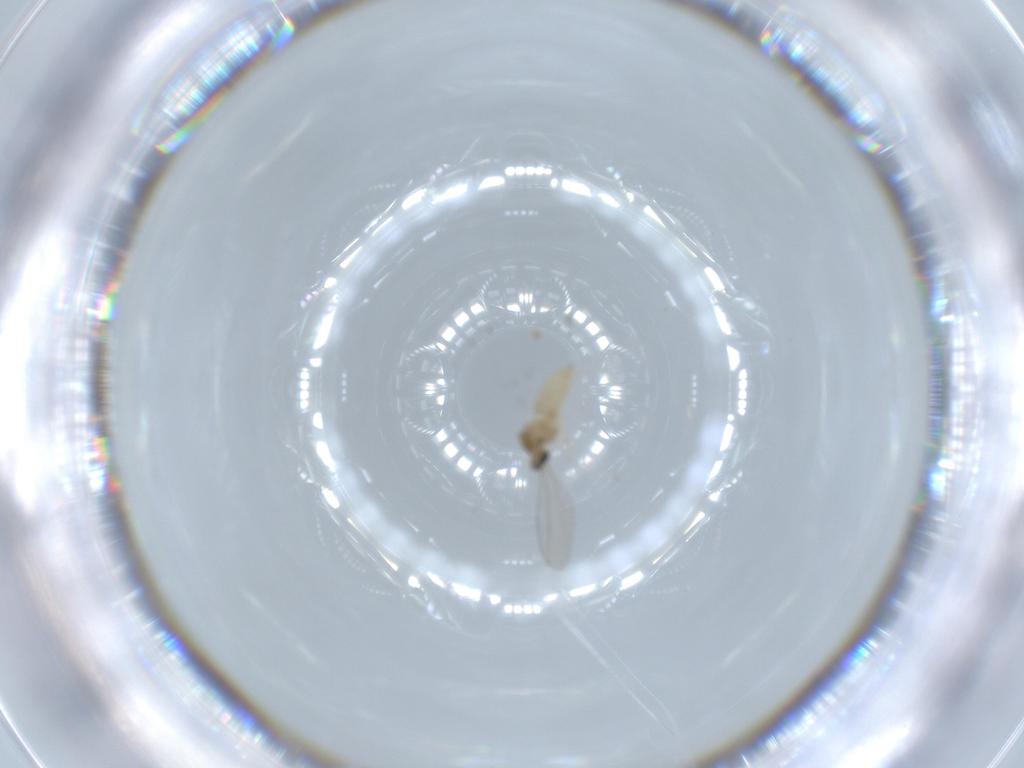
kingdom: Animalia
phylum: Arthropoda
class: Insecta
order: Diptera
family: Cecidomyiidae
